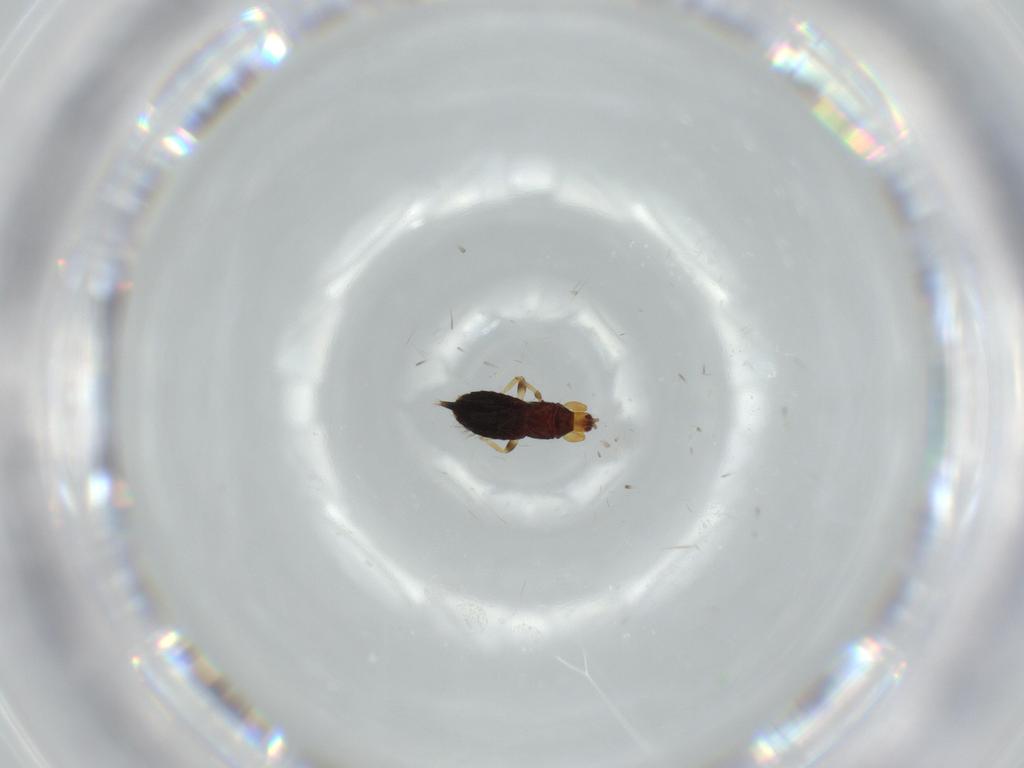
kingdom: Animalia
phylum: Arthropoda
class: Insecta
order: Thysanoptera
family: Phlaeothripidae
